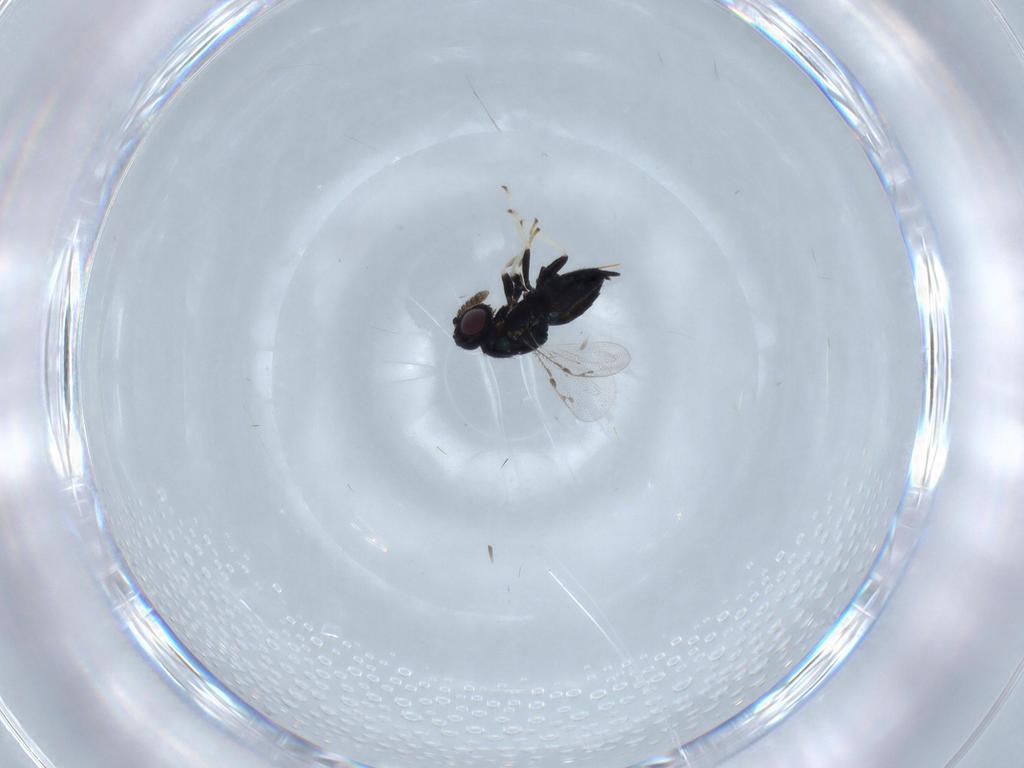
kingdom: Animalia
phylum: Arthropoda
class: Insecta
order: Hymenoptera
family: Pirenidae
